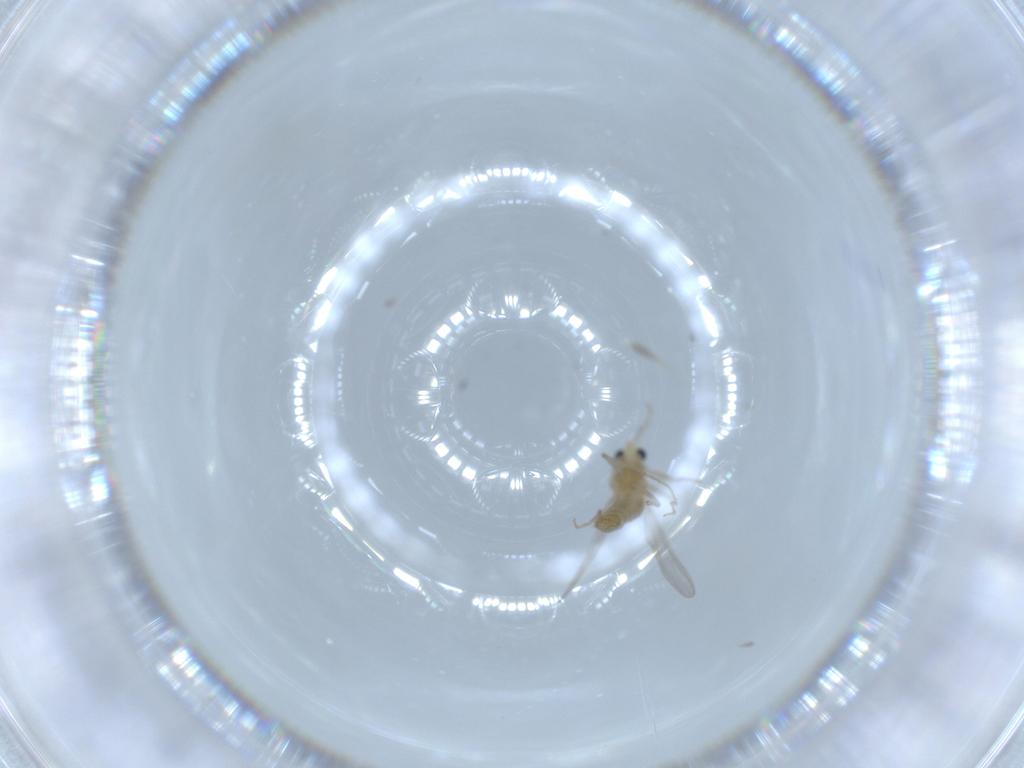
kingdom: Animalia
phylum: Arthropoda
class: Insecta
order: Diptera
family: Chironomidae
